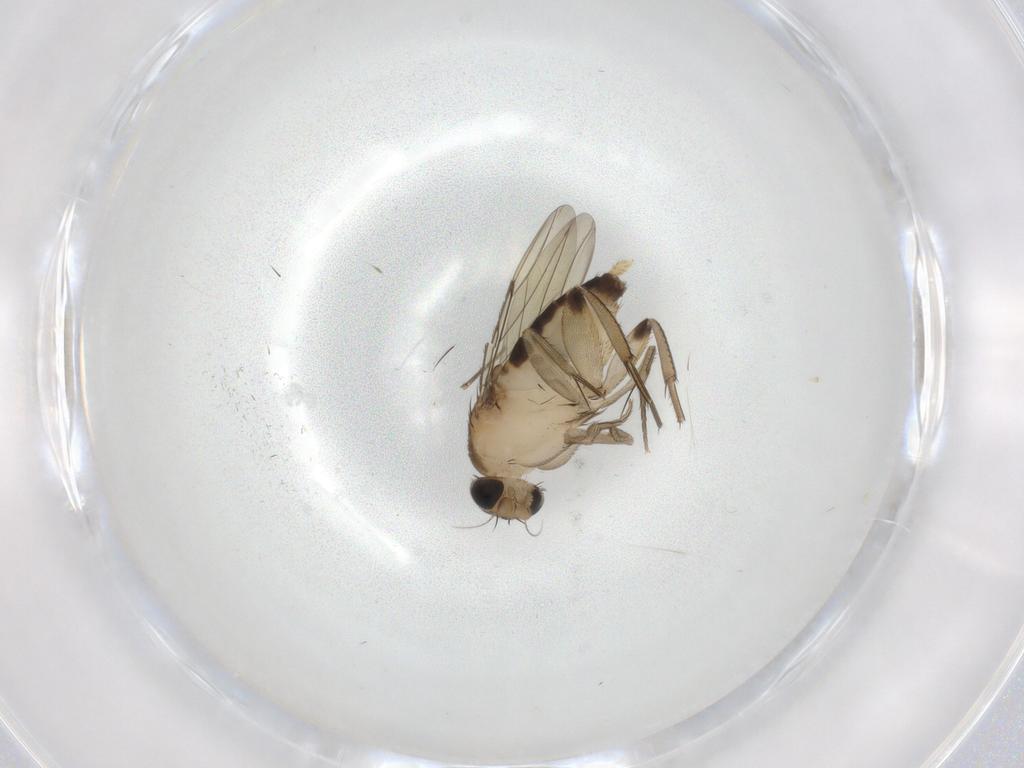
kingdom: Animalia
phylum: Arthropoda
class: Insecta
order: Diptera
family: Phoridae
